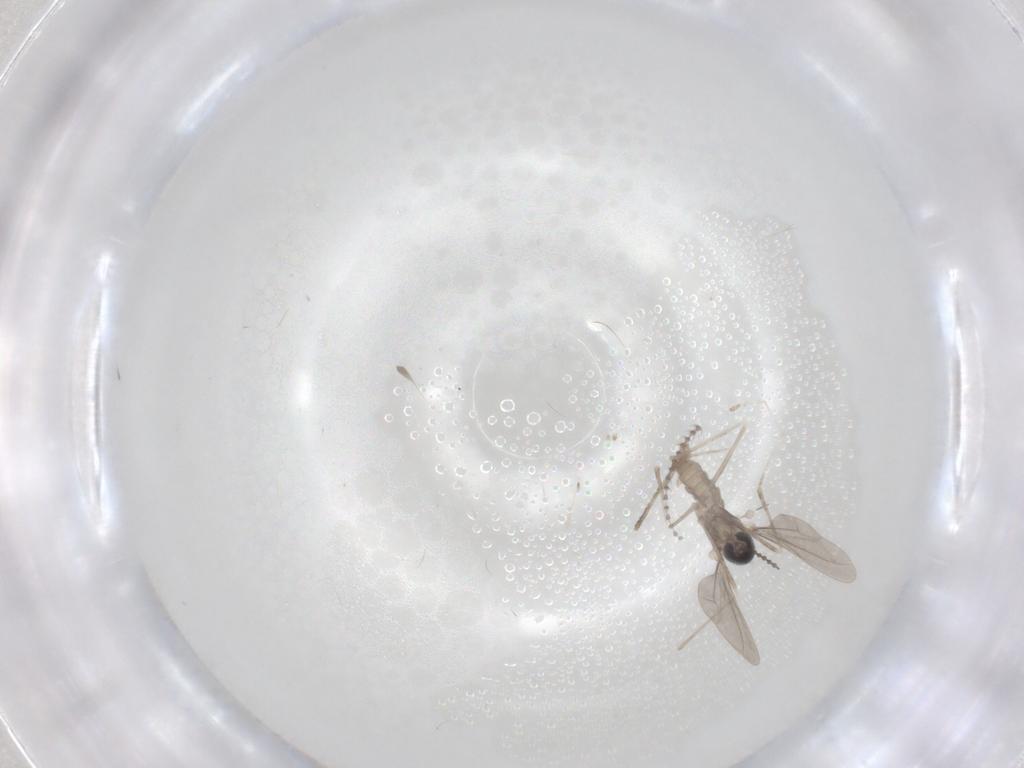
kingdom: Animalia
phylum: Arthropoda
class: Insecta
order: Diptera
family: Cecidomyiidae
